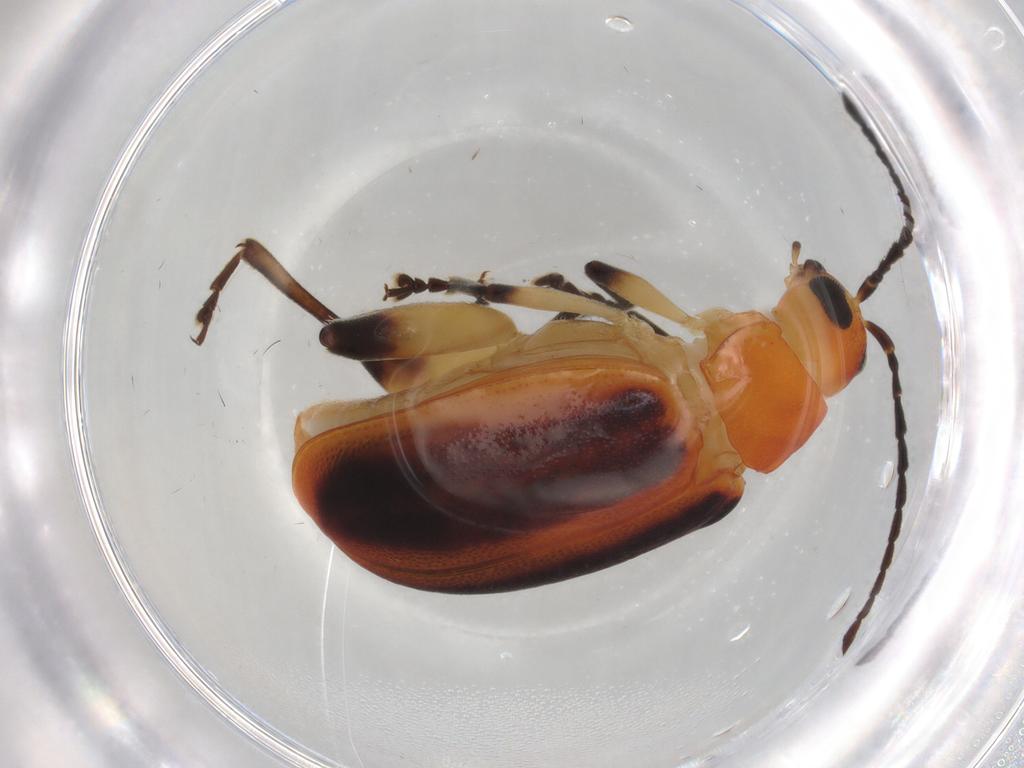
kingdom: Animalia
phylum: Arthropoda
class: Insecta
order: Coleoptera
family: Chrysomelidae
